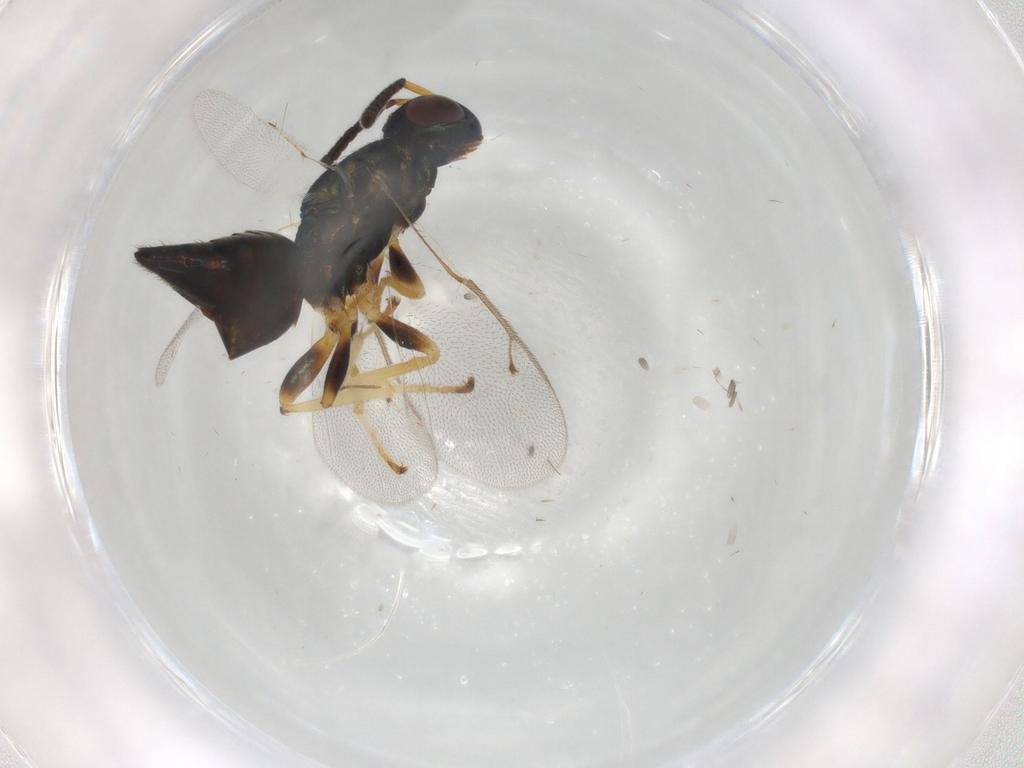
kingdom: Animalia
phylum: Arthropoda
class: Insecta
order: Hymenoptera
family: Pteromalidae
